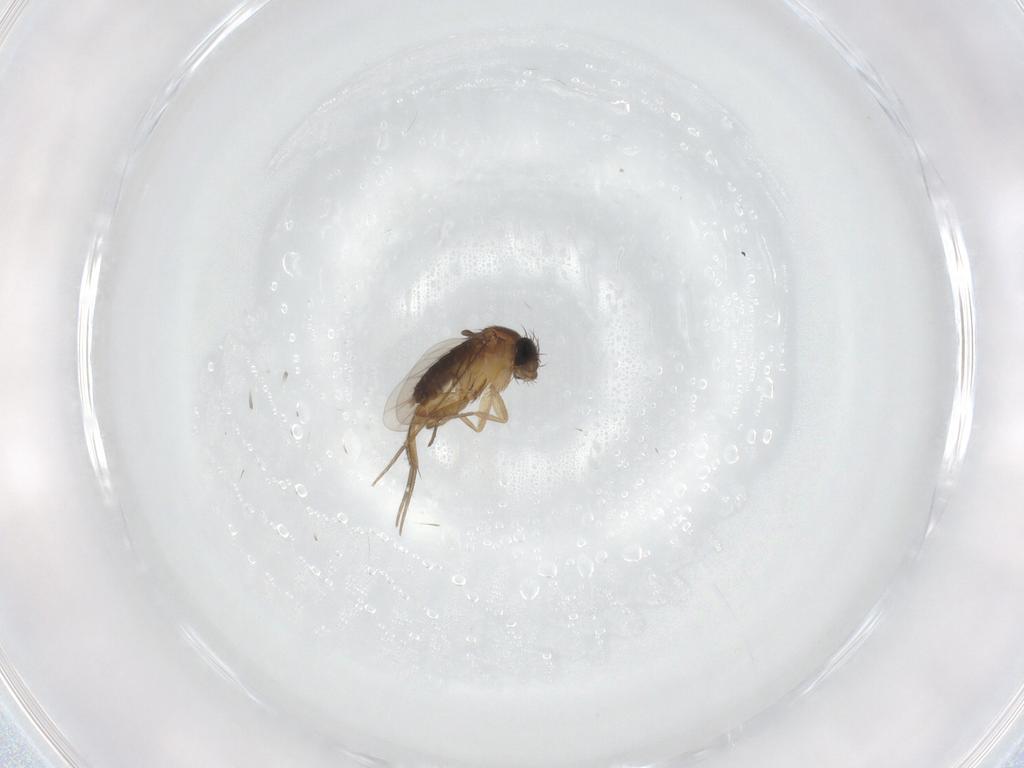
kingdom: Animalia
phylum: Arthropoda
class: Insecta
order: Diptera
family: Phoridae
